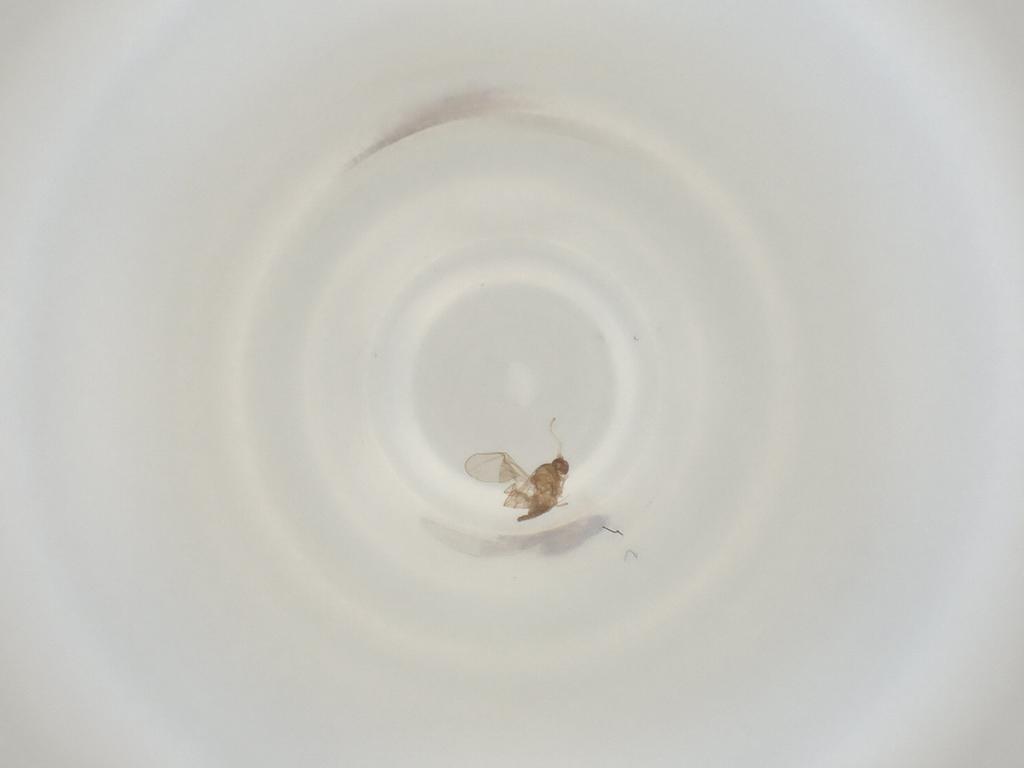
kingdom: Animalia
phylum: Arthropoda
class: Insecta
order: Diptera
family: Cecidomyiidae
